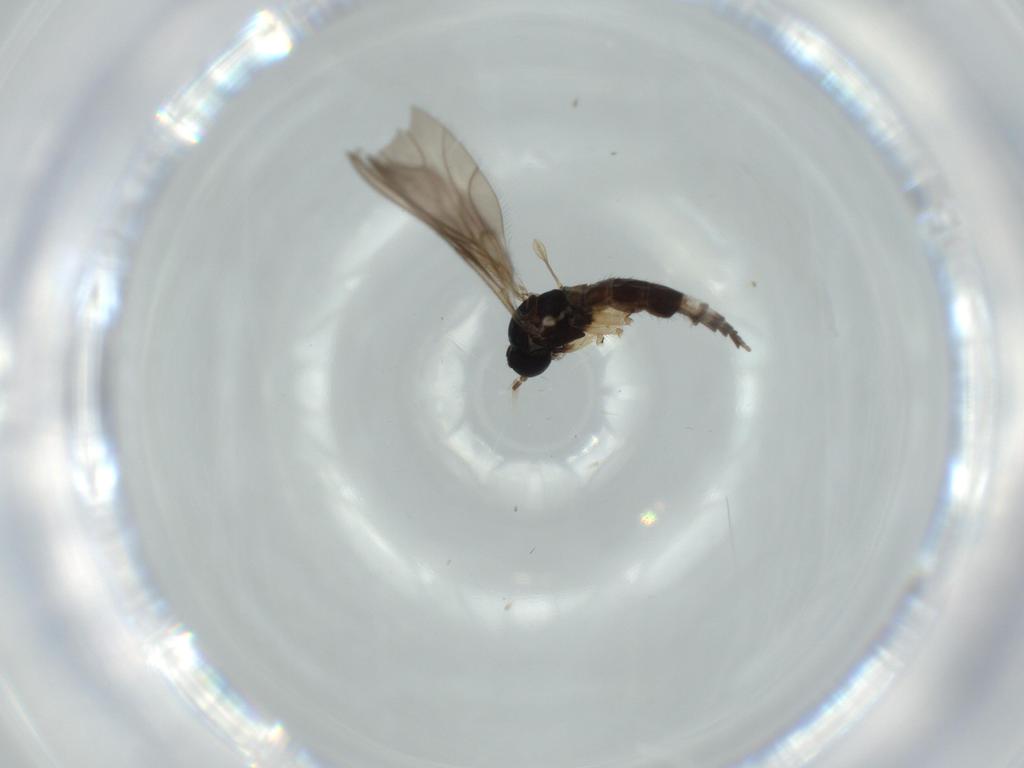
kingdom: Animalia
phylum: Arthropoda
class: Insecta
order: Diptera
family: Sciaridae
